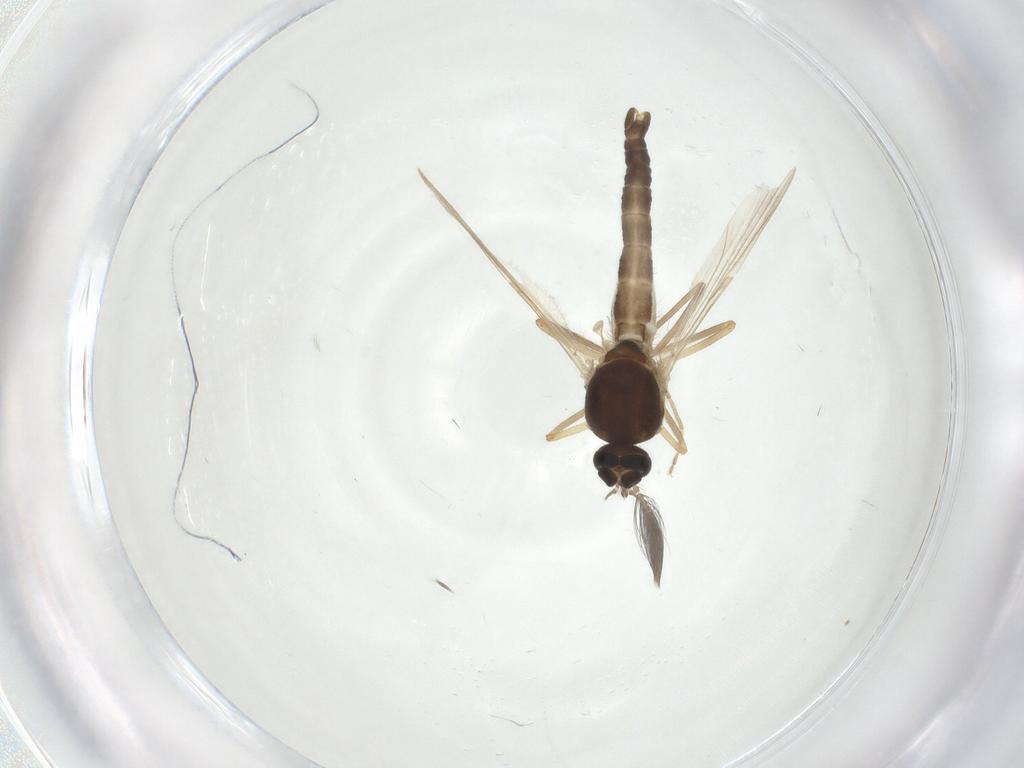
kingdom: Animalia
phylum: Arthropoda
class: Insecta
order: Diptera
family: Ceratopogonidae
